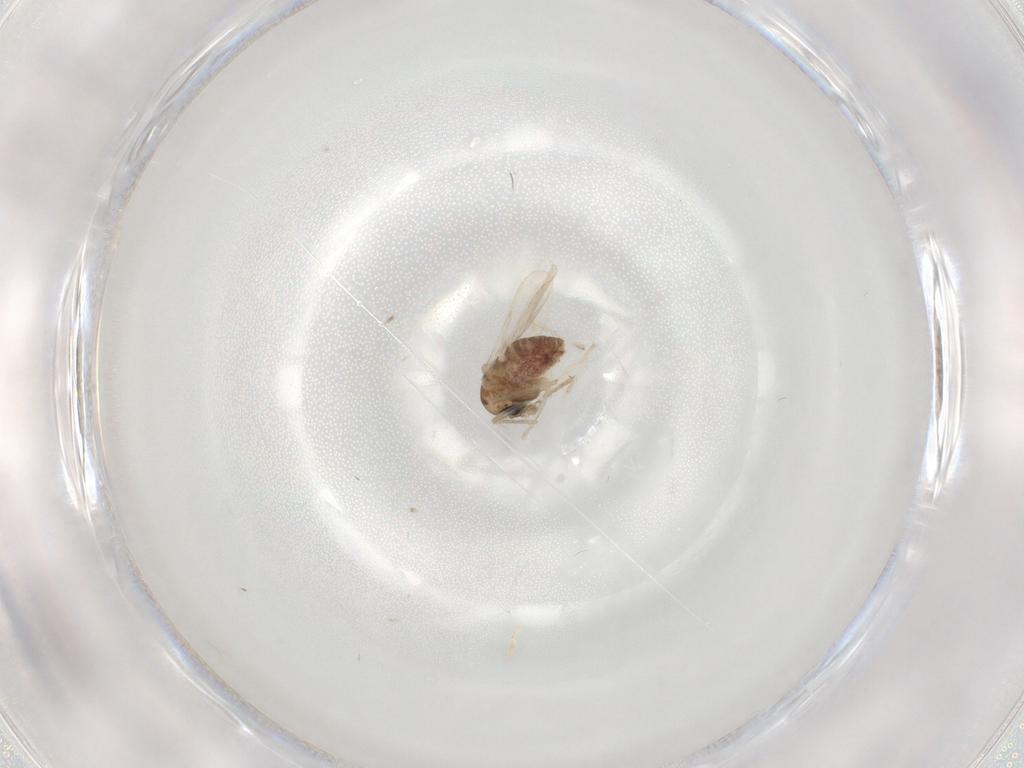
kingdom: Animalia
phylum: Arthropoda
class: Insecta
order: Diptera
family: Chironomidae
